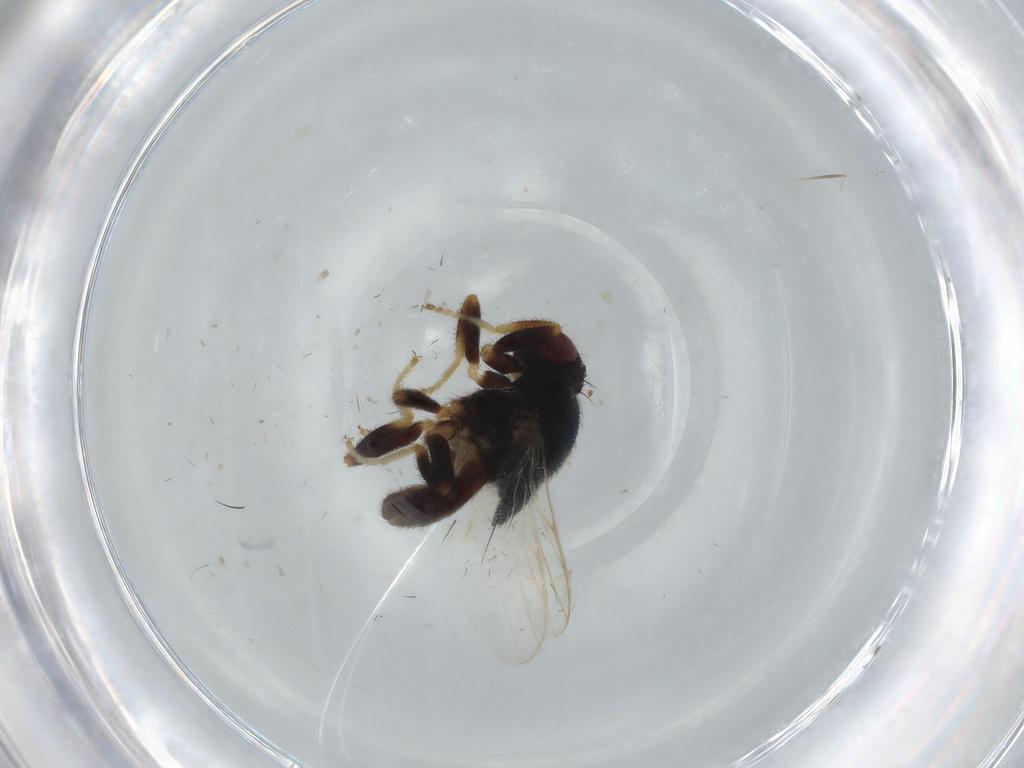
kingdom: Animalia
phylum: Arthropoda
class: Insecta
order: Diptera
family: Chloropidae
